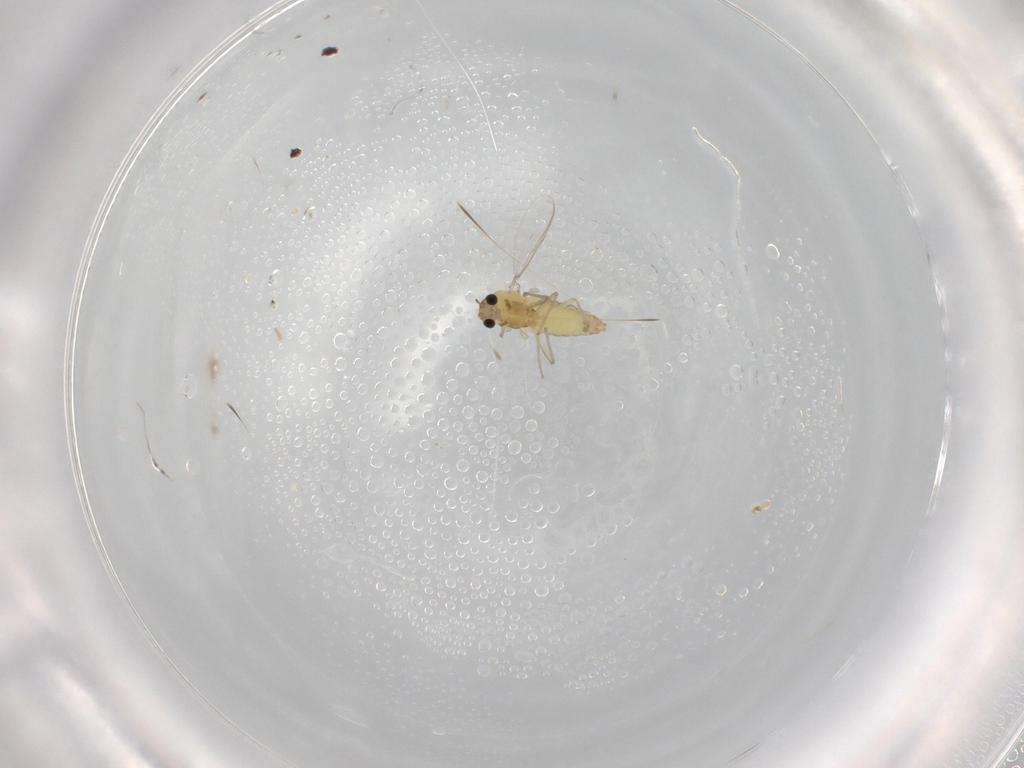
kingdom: Animalia
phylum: Arthropoda
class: Insecta
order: Diptera
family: Chironomidae
